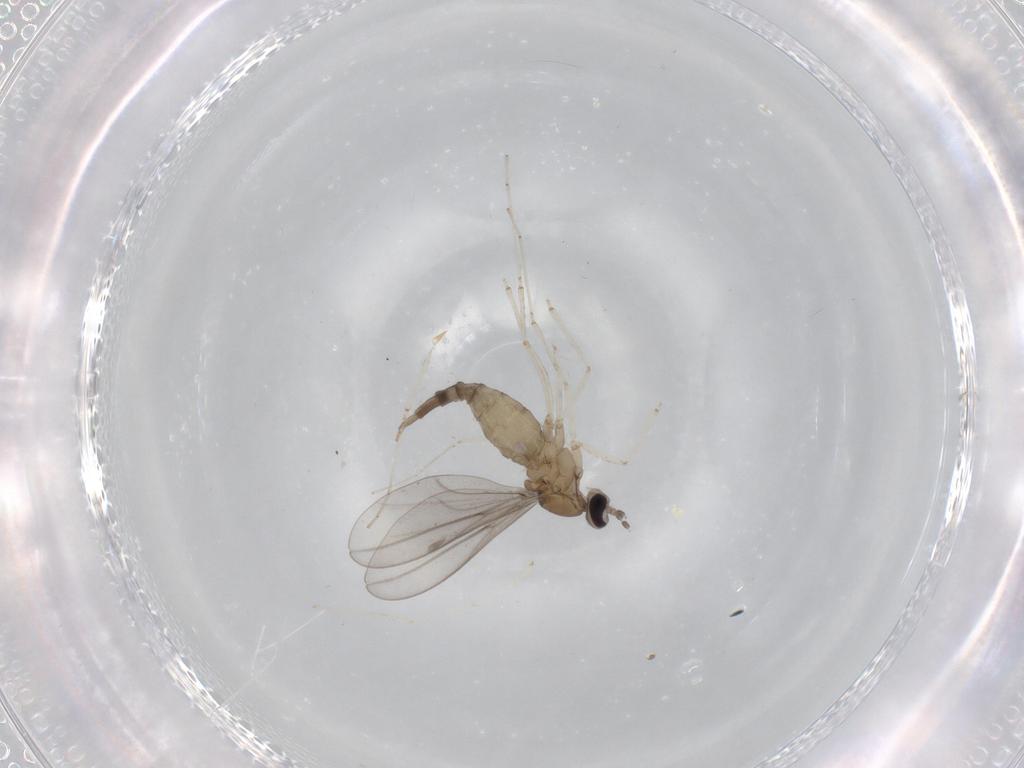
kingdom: Animalia
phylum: Arthropoda
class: Insecta
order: Diptera
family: Cecidomyiidae
